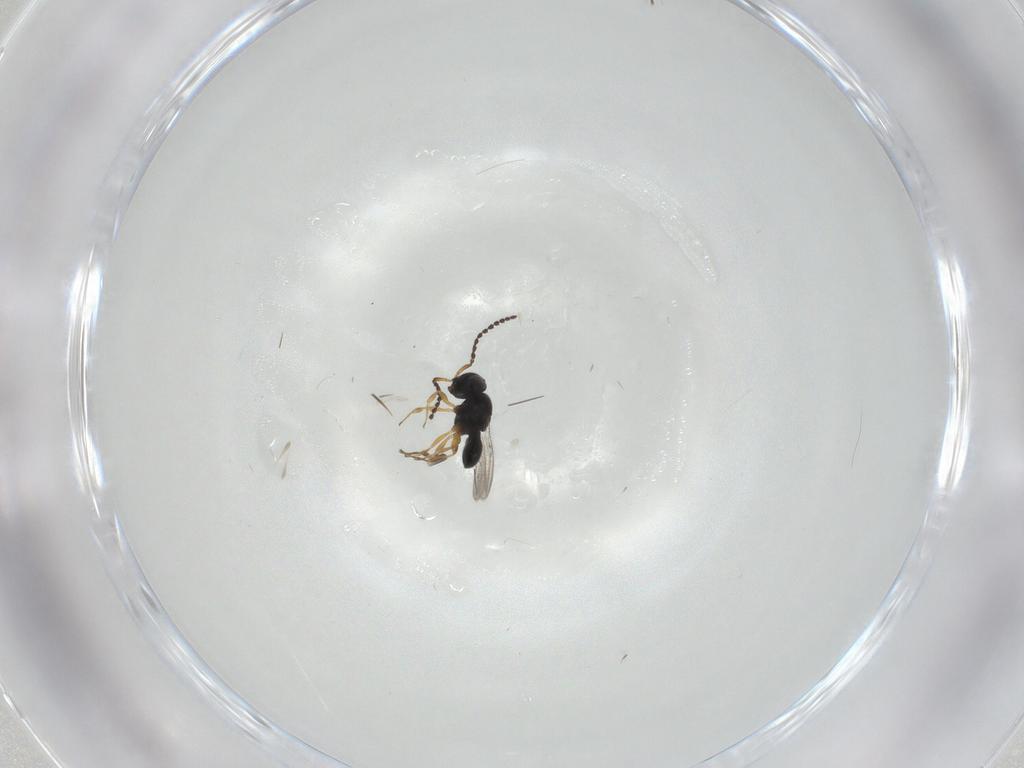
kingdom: Animalia
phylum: Arthropoda
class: Insecta
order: Hymenoptera
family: Scelionidae
